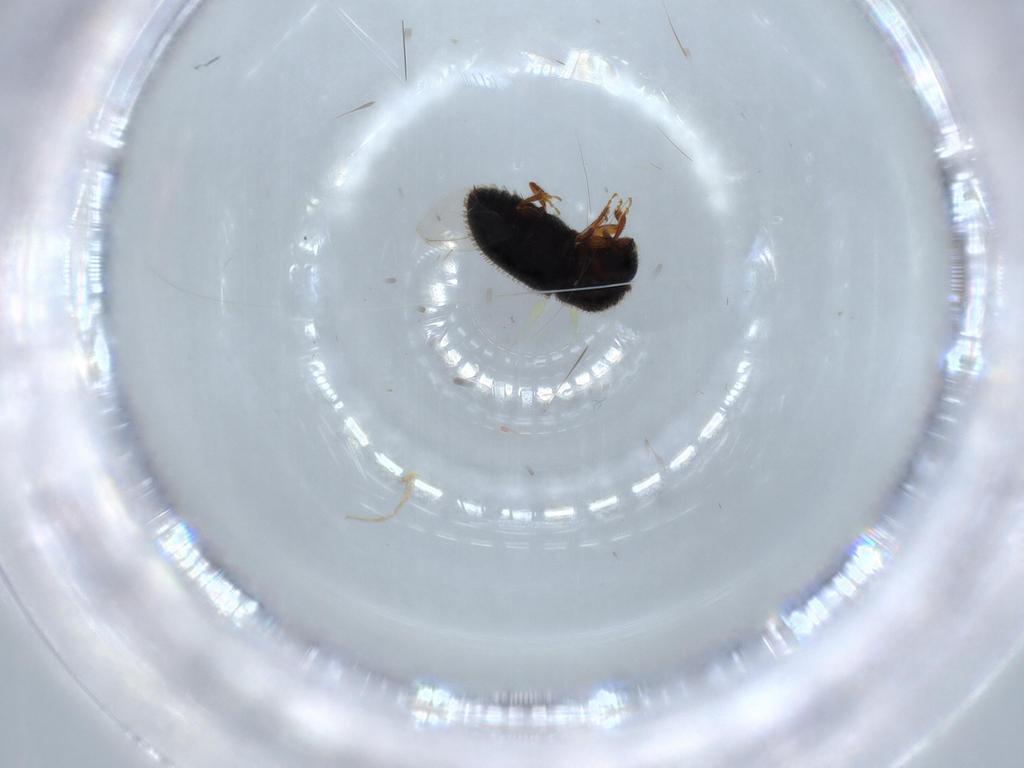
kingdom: Animalia
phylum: Arthropoda
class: Insecta
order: Coleoptera
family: Curculionidae
